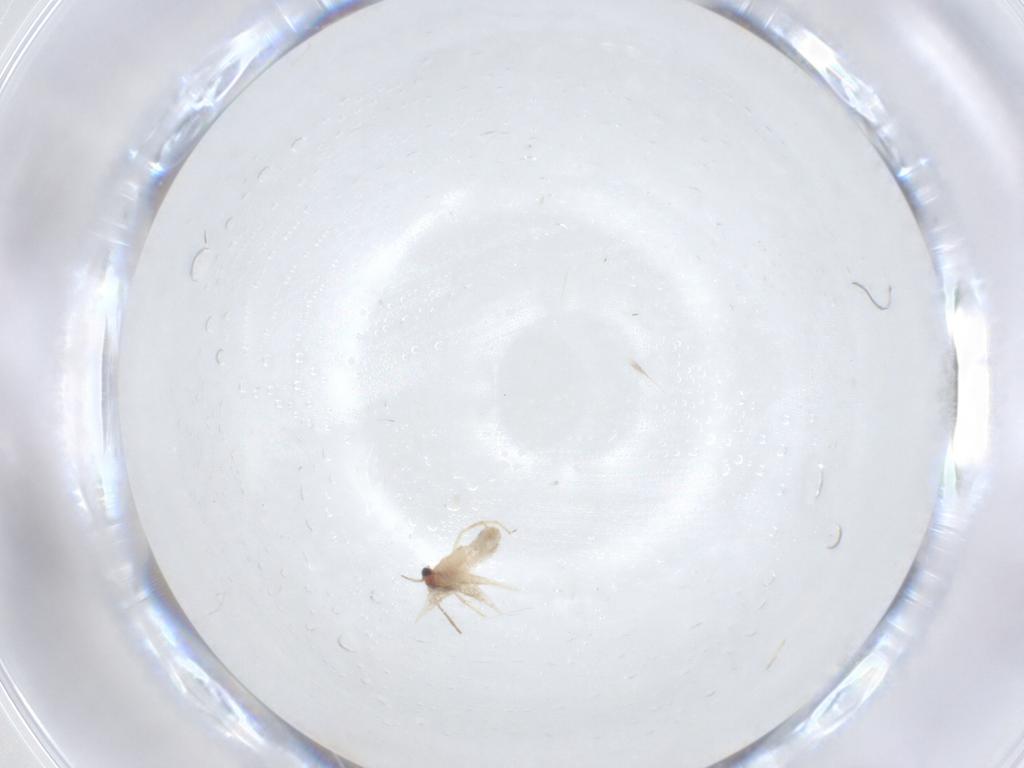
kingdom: Animalia
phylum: Arthropoda
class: Insecta
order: Lepidoptera
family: Nepticulidae
